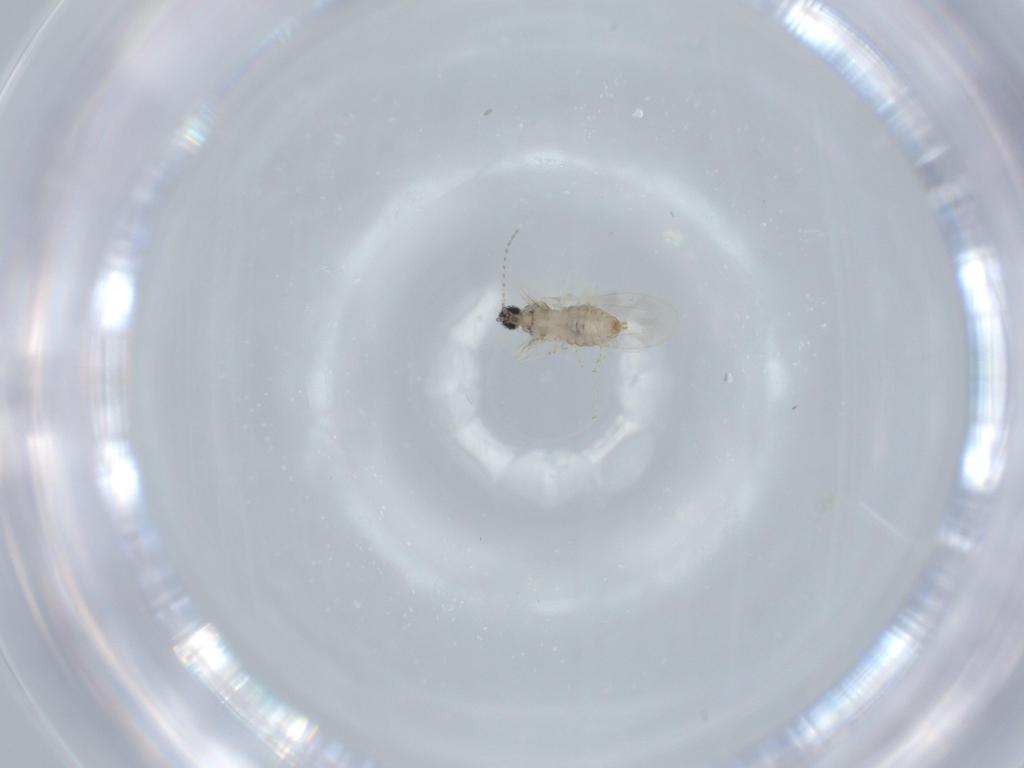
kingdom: Animalia
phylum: Arthropoda
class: Insecta
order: Diptera
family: Cecidomyiidae
